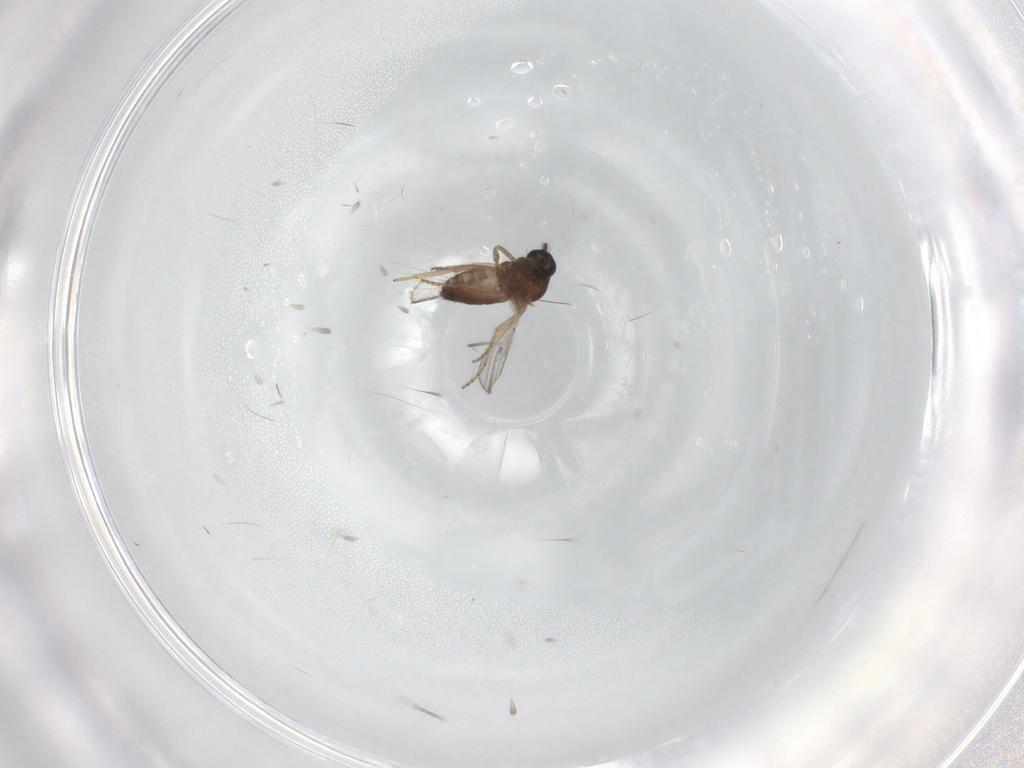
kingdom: Animalia
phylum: Arthropoda
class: Insecta
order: Diptera
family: Ceratopogonidae
